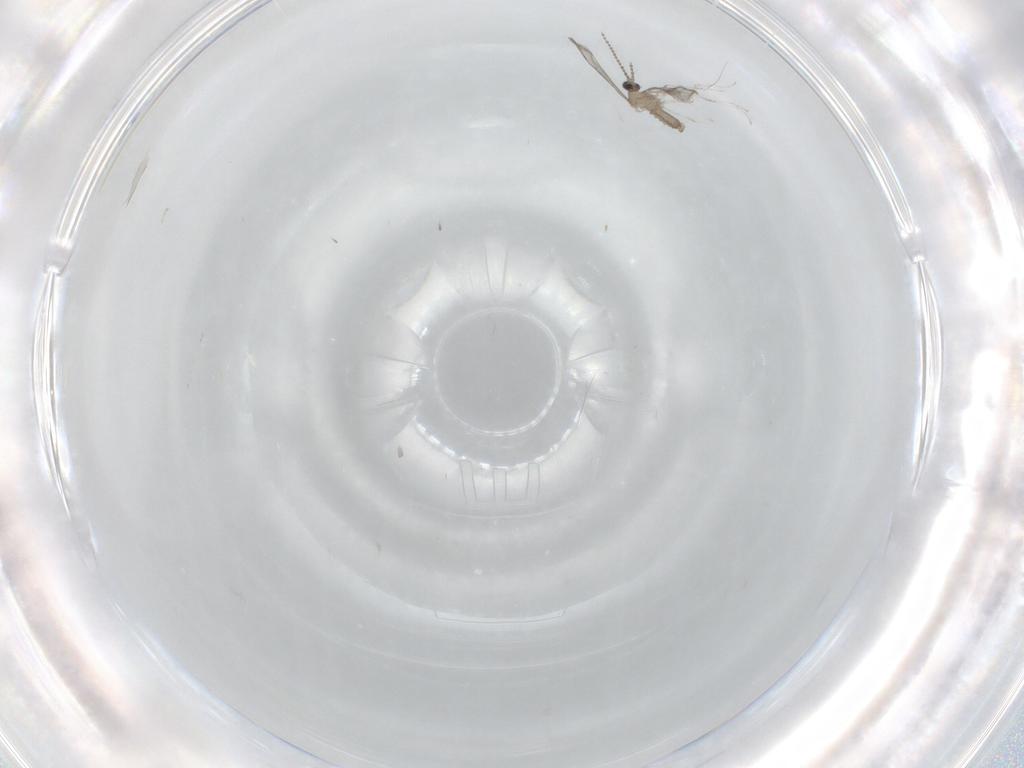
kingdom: Animalia
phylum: Arthropoda
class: Insecta
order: Diptera
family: Cecidomyiidae
